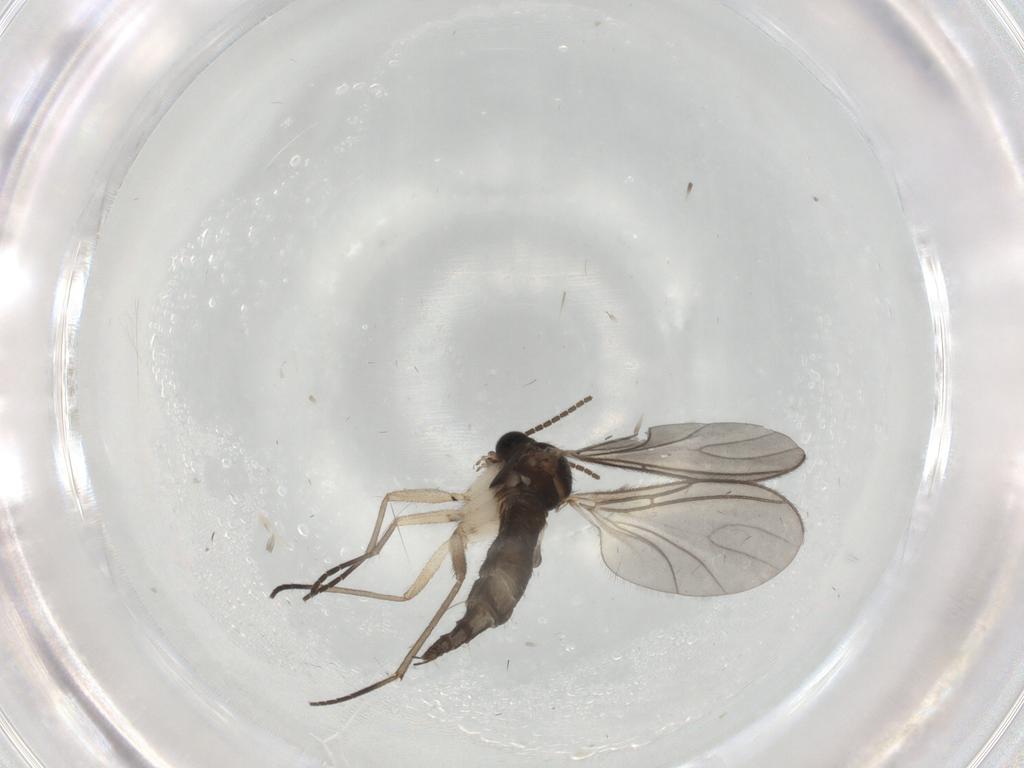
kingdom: Animalia
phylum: Arthropoda
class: Insecta
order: Diptera
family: Sciaridae
